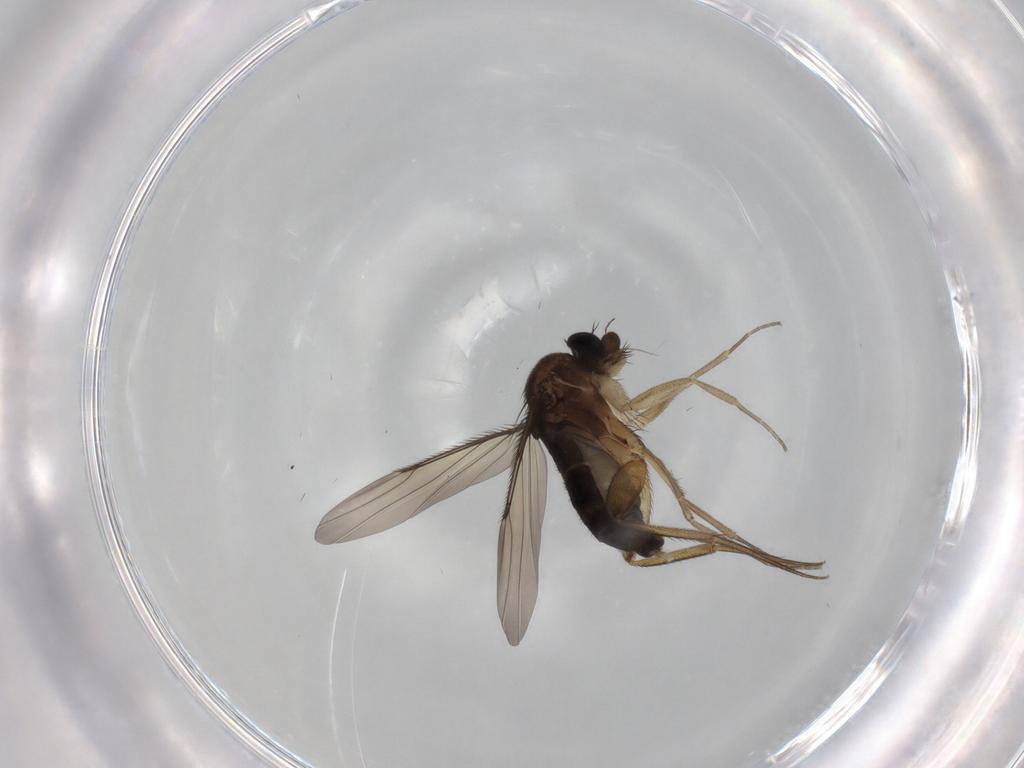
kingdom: Animalia
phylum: Arthropoda
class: Insecta
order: Diptera
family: Phoridae
